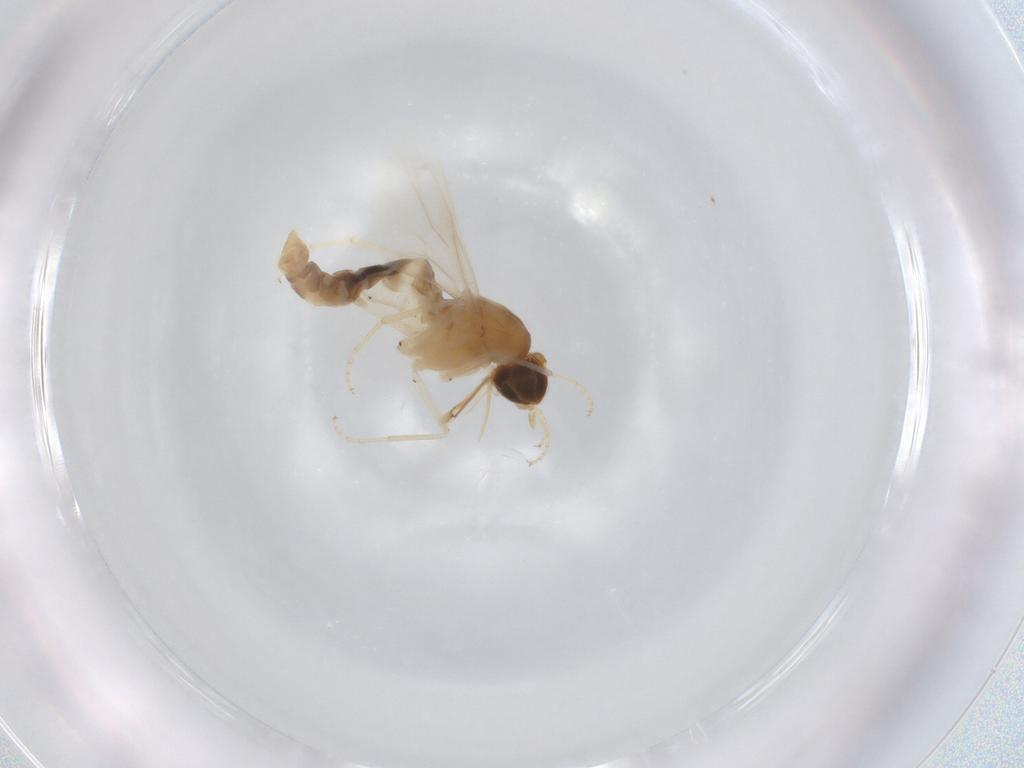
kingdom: Animalia
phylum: Arthropoda
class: Insecta
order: Diptera
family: Scenopinidae
